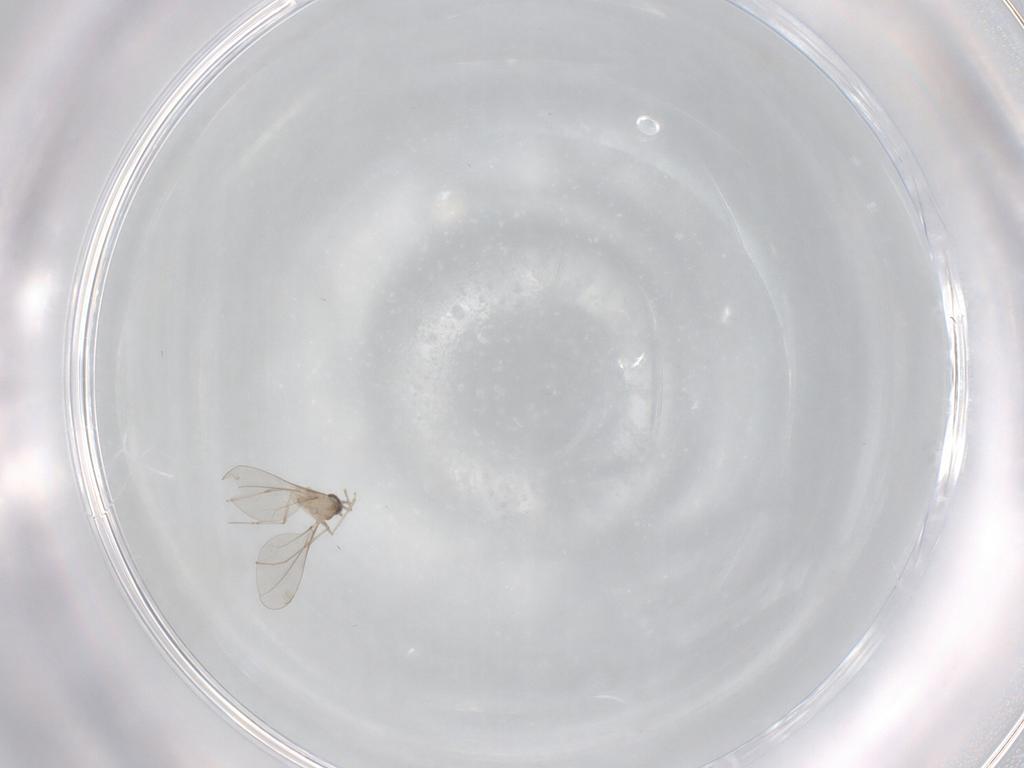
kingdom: Animalia
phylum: Arthropoda
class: Insecta
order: Diptera
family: Cecidomyiidae
